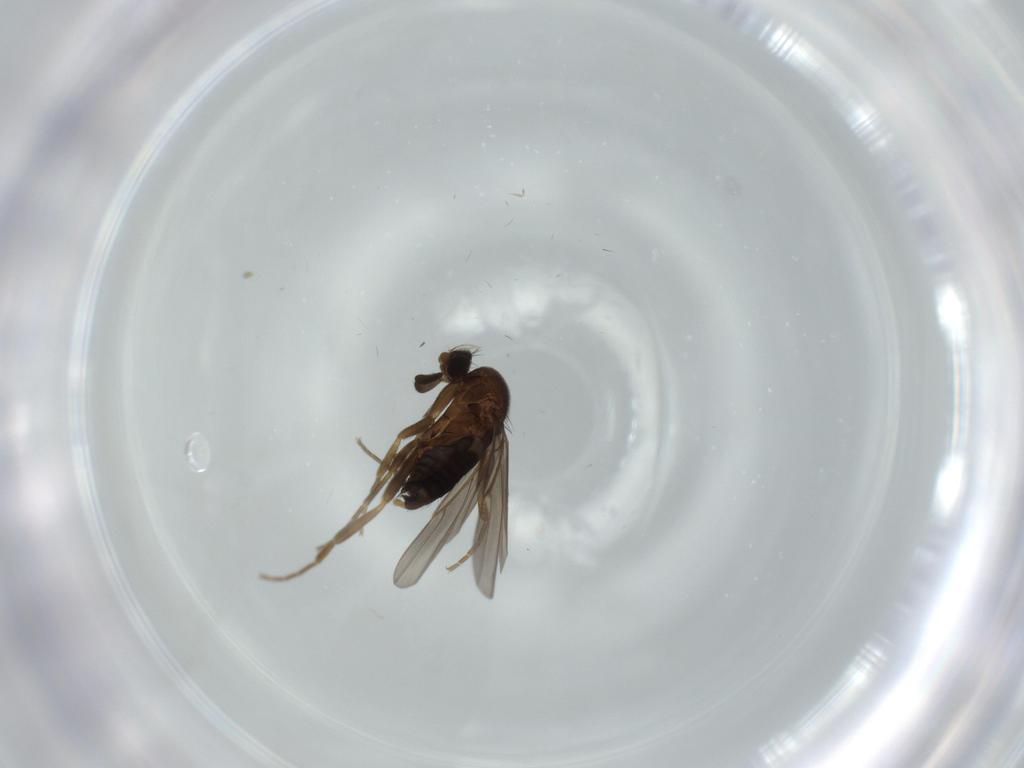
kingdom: Animalia
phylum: Arthropoda
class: Insecta
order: Diptera
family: Phoridae
